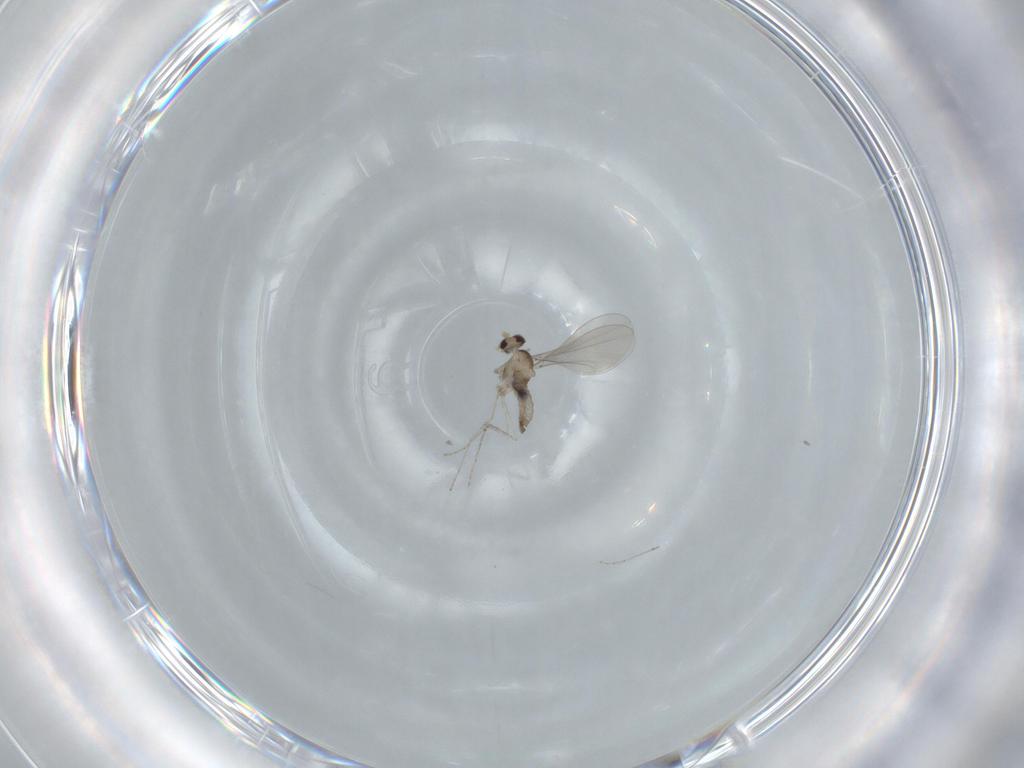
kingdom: Animalia
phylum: Arthropoda
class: Insecta
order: Diptera
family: Cecidomyiidae
